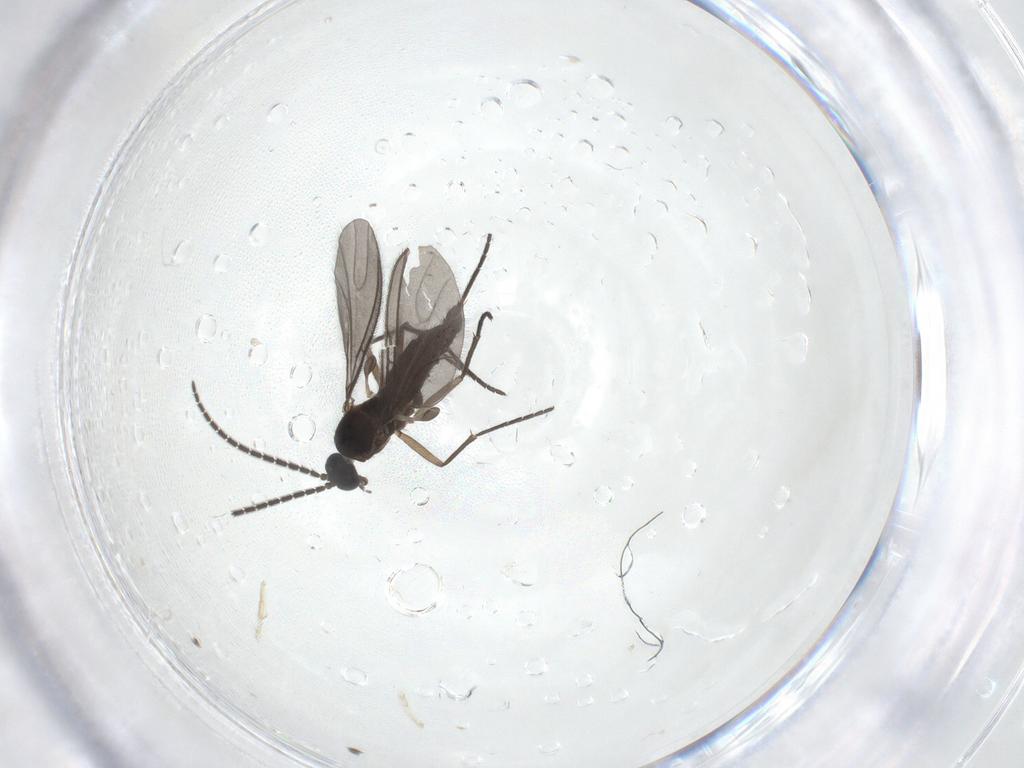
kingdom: Animalia
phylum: Arthropoda
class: Insecta
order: Diptera
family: Sciaridae
